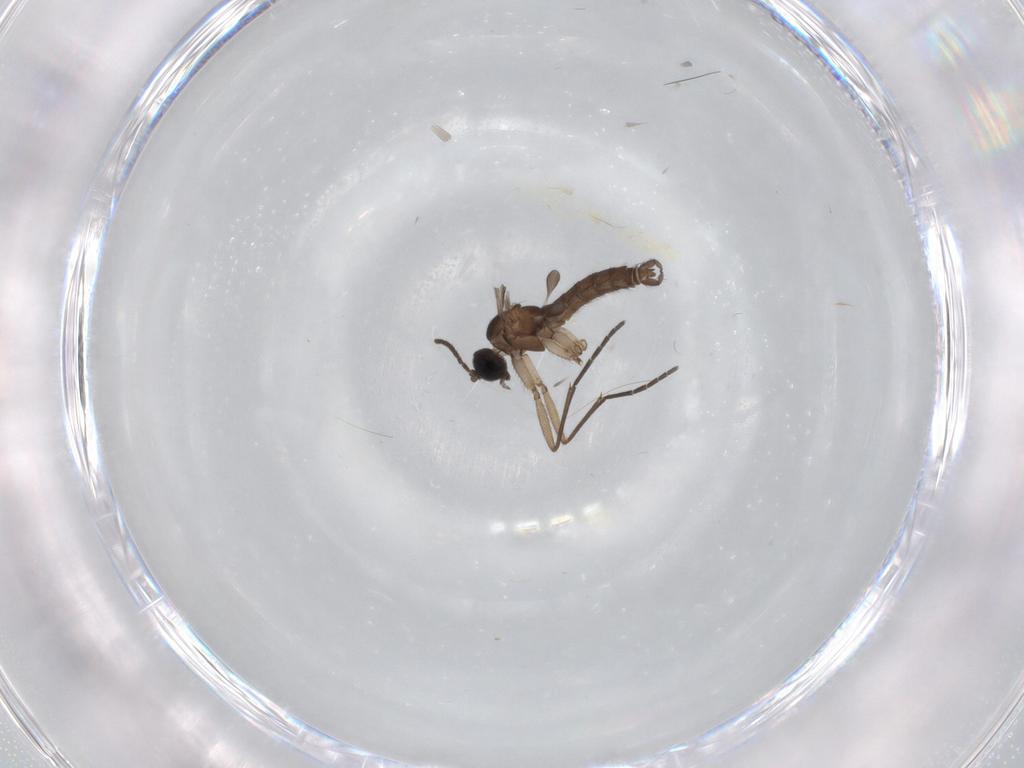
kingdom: Animalia
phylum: Arthropoda
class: Insecta
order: Diptera
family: Sciaridae
